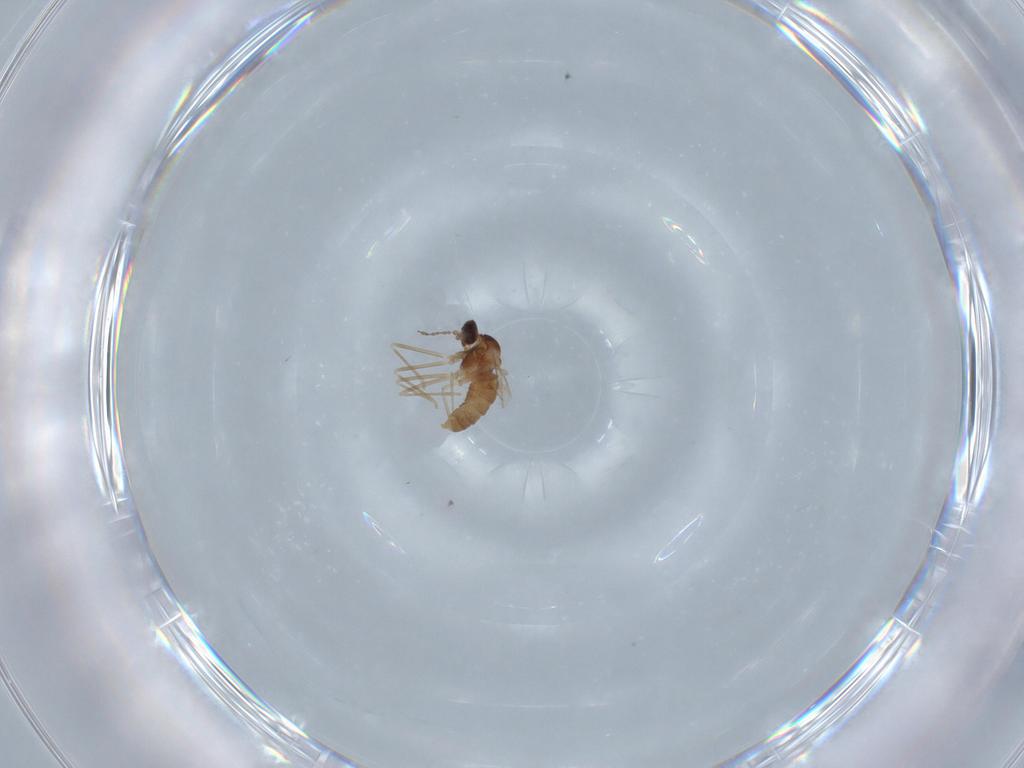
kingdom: Animalia
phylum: Arthropoda
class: Insecta
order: Diptera
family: Cecidomyiidae
